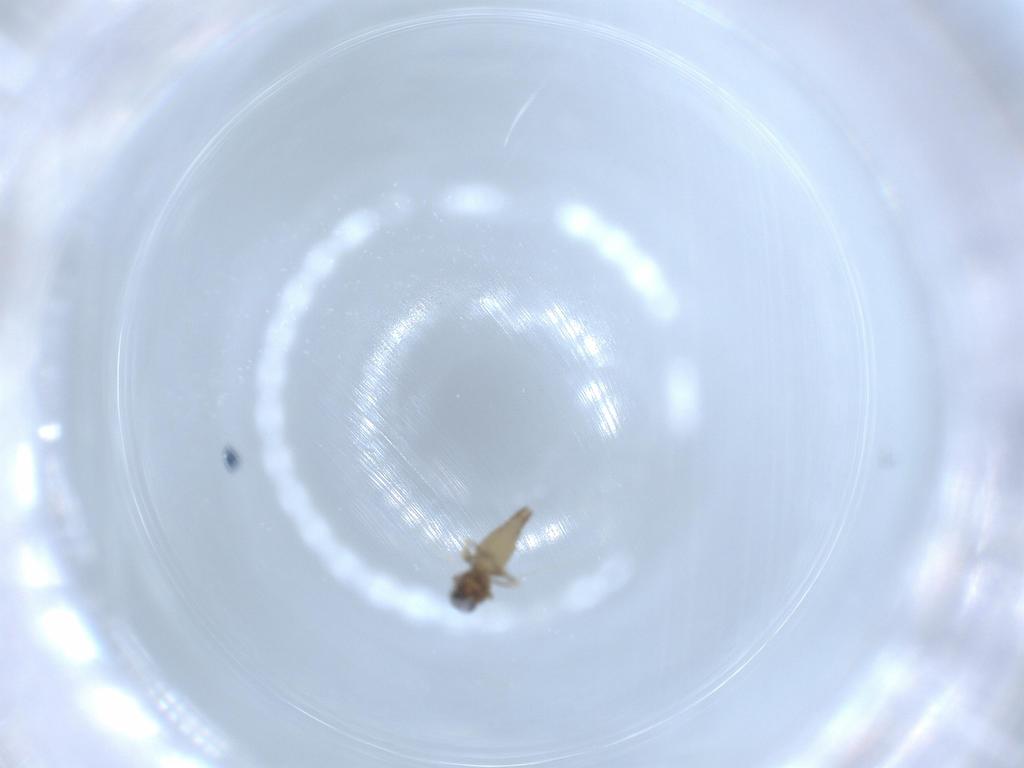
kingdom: Animalia
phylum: Arthropoda
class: Insecta
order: Diptera
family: Ceratopogonidae
